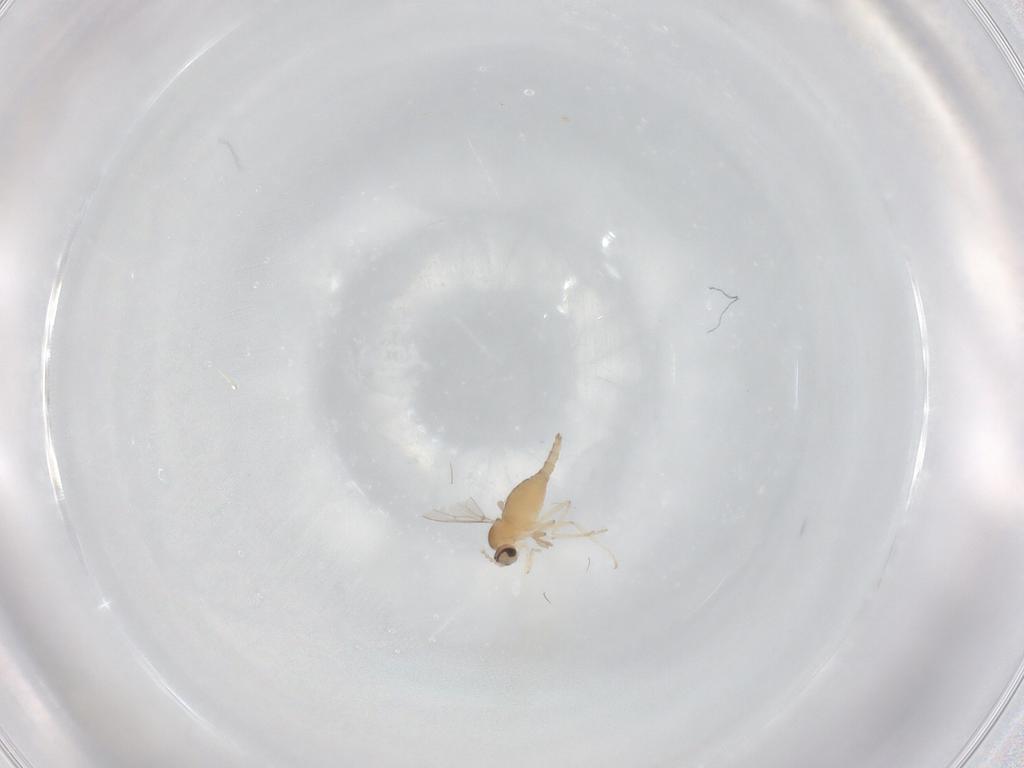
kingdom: Animalia
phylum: Arthropoda
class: Insecta
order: Diptera
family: Cecidomyiidae
